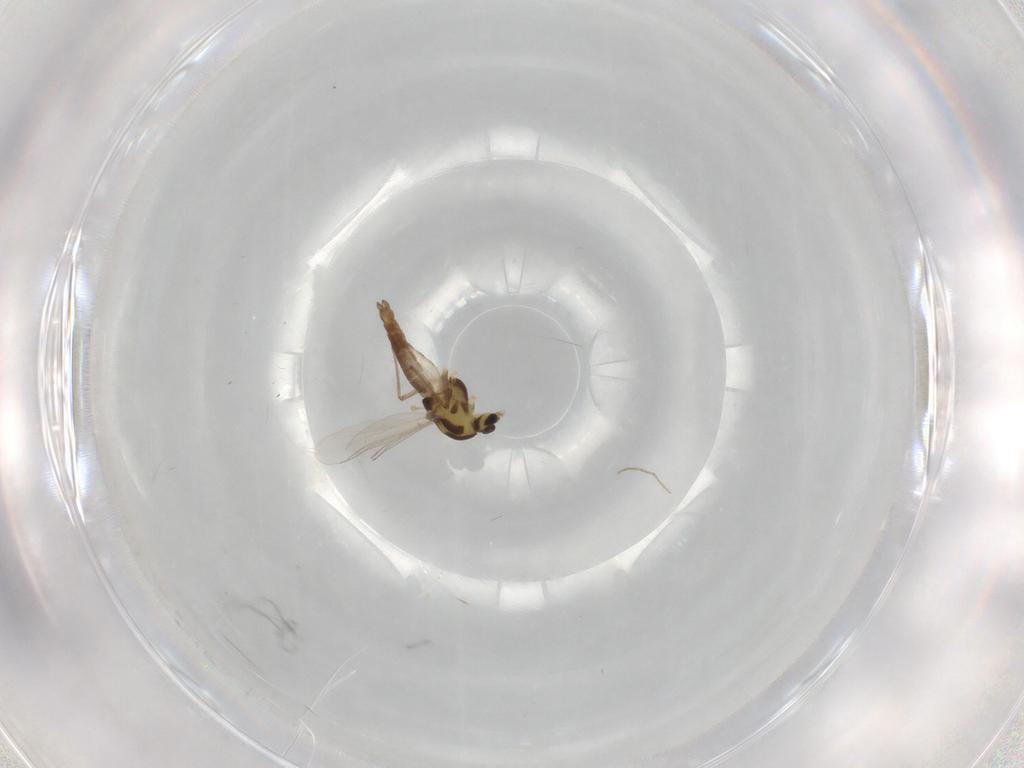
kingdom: Animalia
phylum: Arthropoda
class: Insecta
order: Diptera
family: Chironomidae
